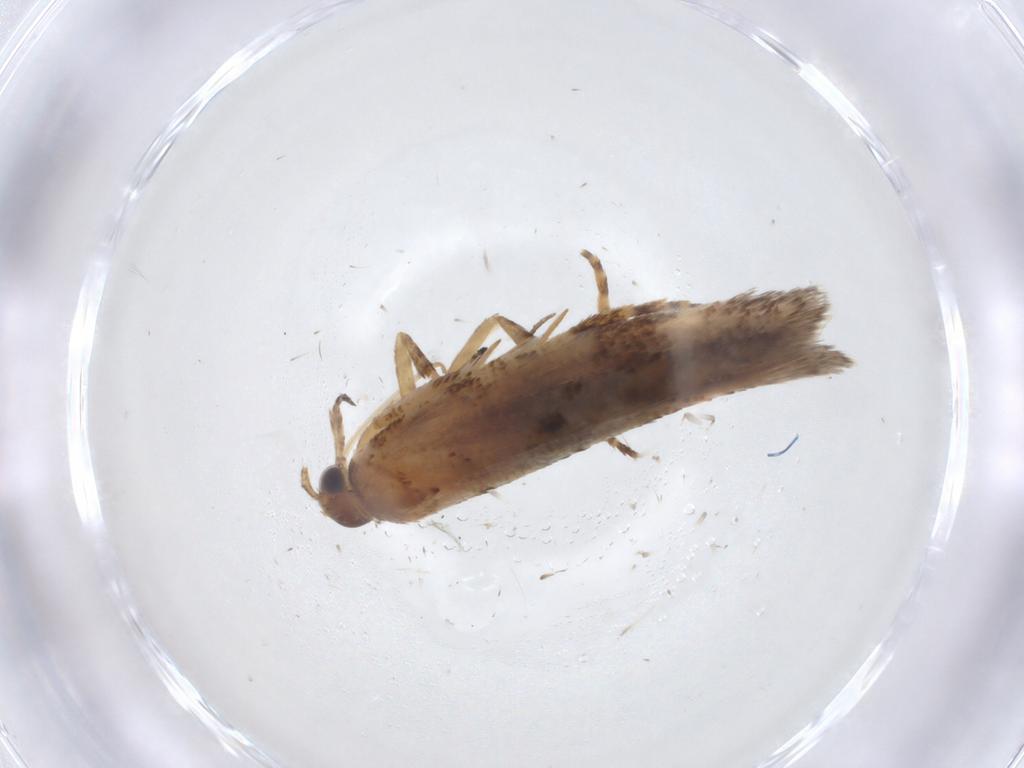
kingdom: Animalia
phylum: Arthropoda
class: Insecta
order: Lepidoptera
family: Gelechiidae
